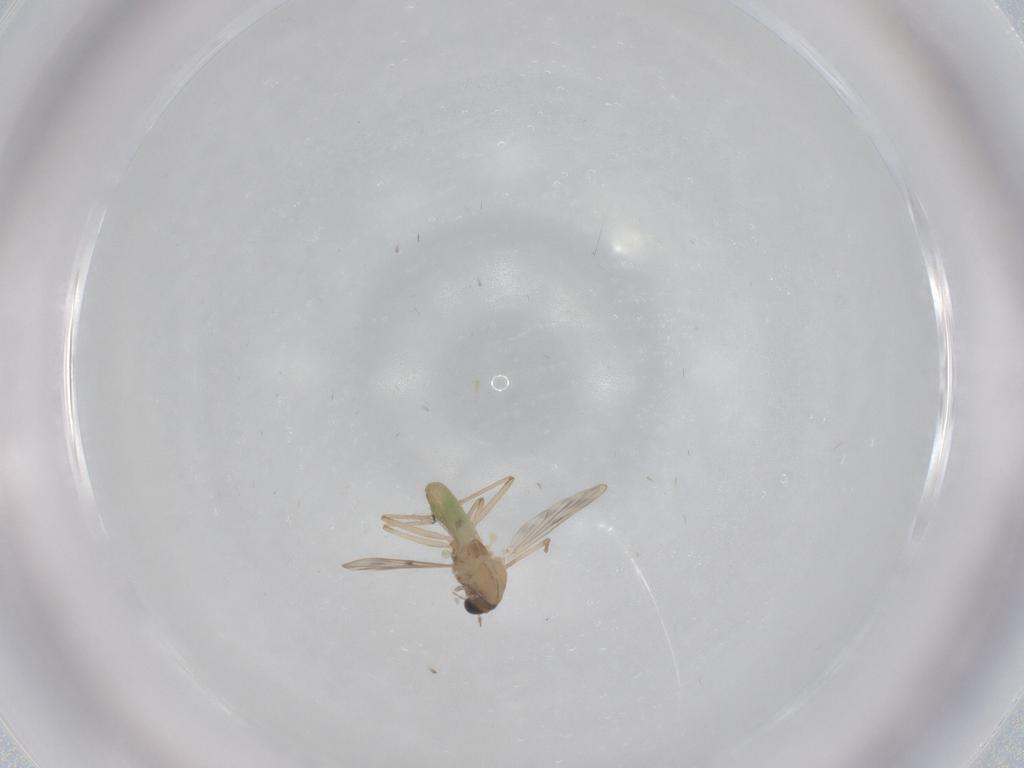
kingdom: Animalia
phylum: Arthropoda
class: Insecta
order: Diptera
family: Chironomidae
